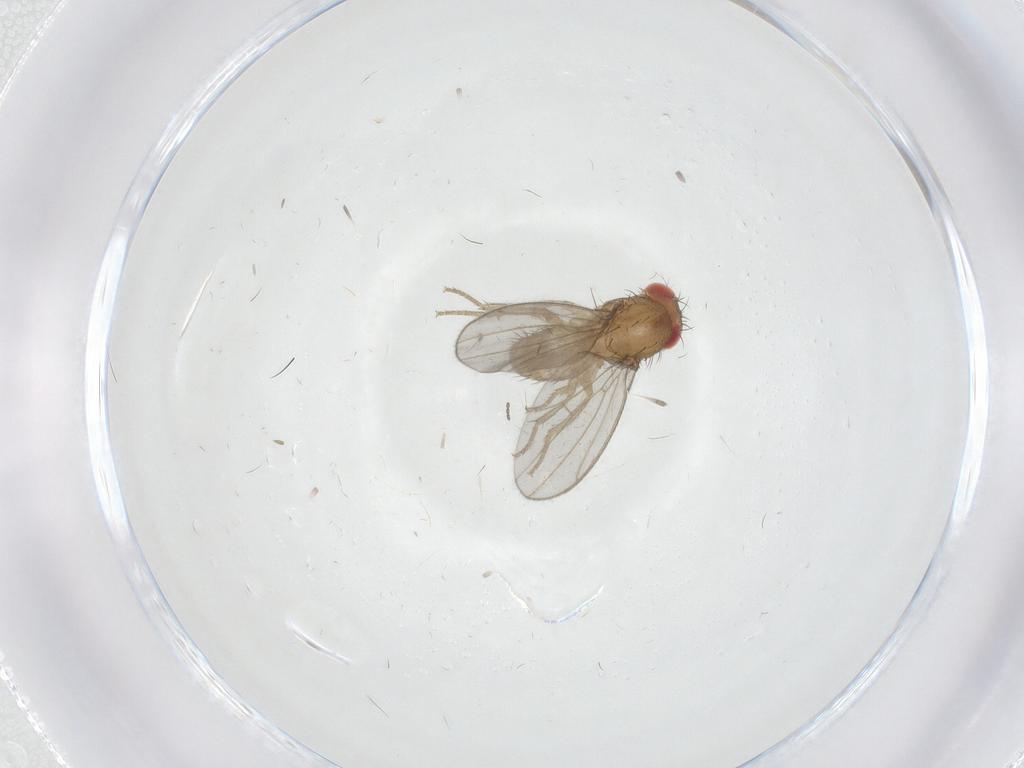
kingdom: Animalia
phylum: Arthropoda
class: Insecta
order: Diptera
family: Drosophilidae
